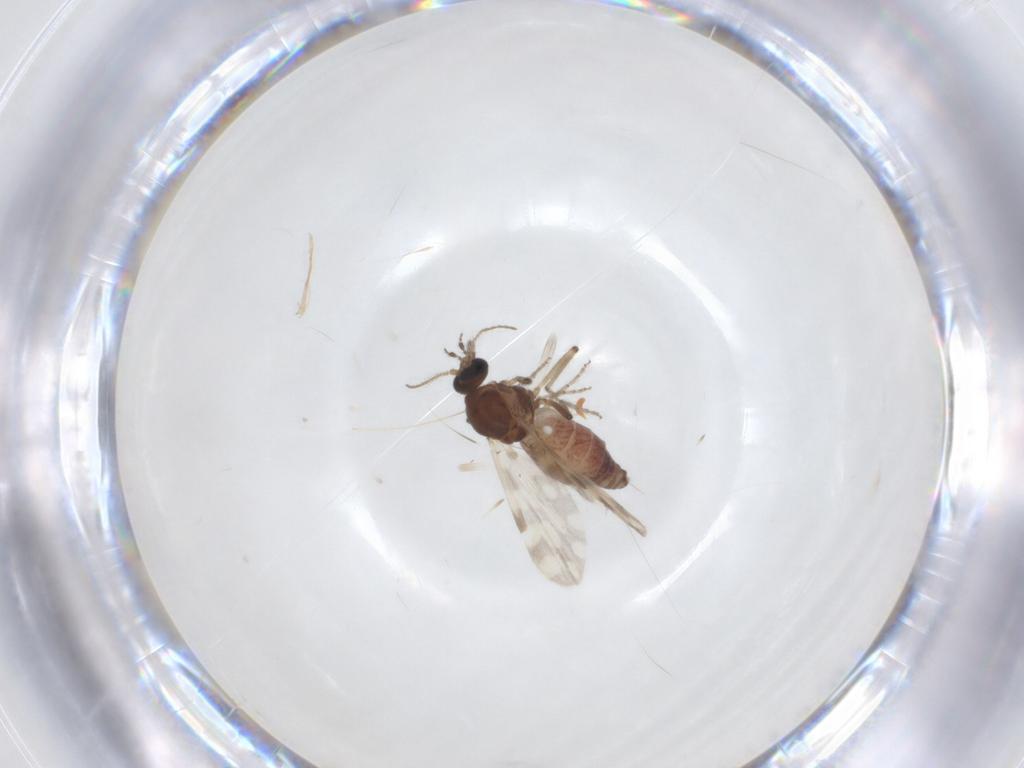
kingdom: Animalia
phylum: Arthropoda
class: Insecta
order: Diptera
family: Ceratopogonidae
